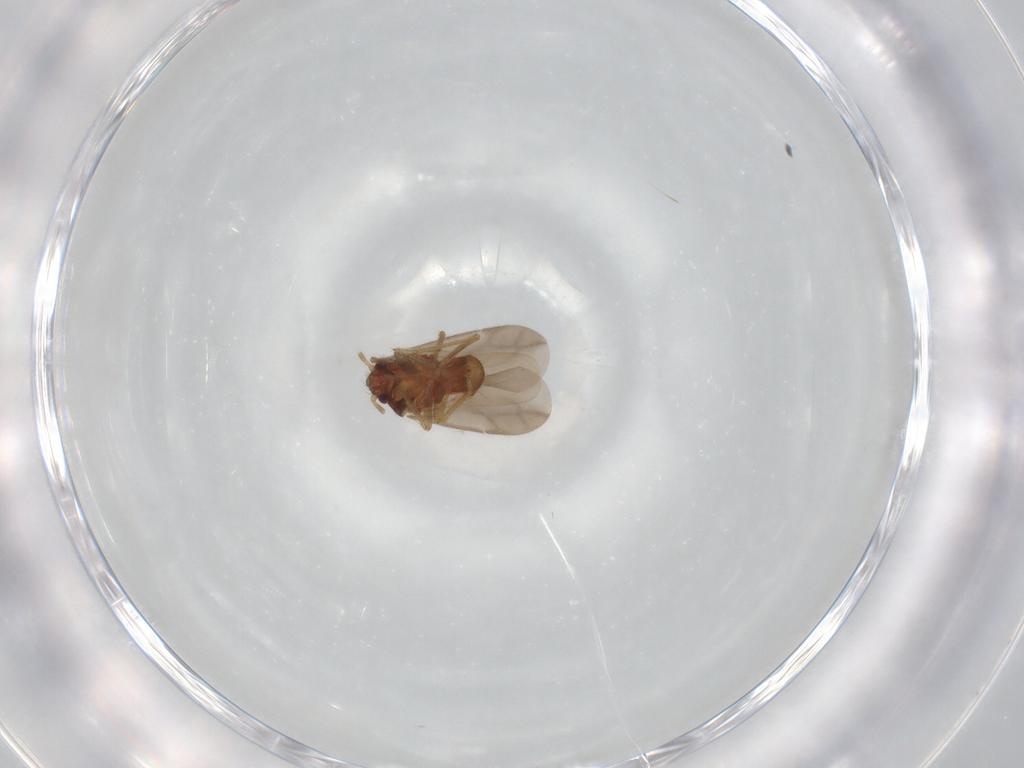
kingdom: Animalia
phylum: Arthropoda
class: Insecta
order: Hemiptera
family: Ceratocombidae
